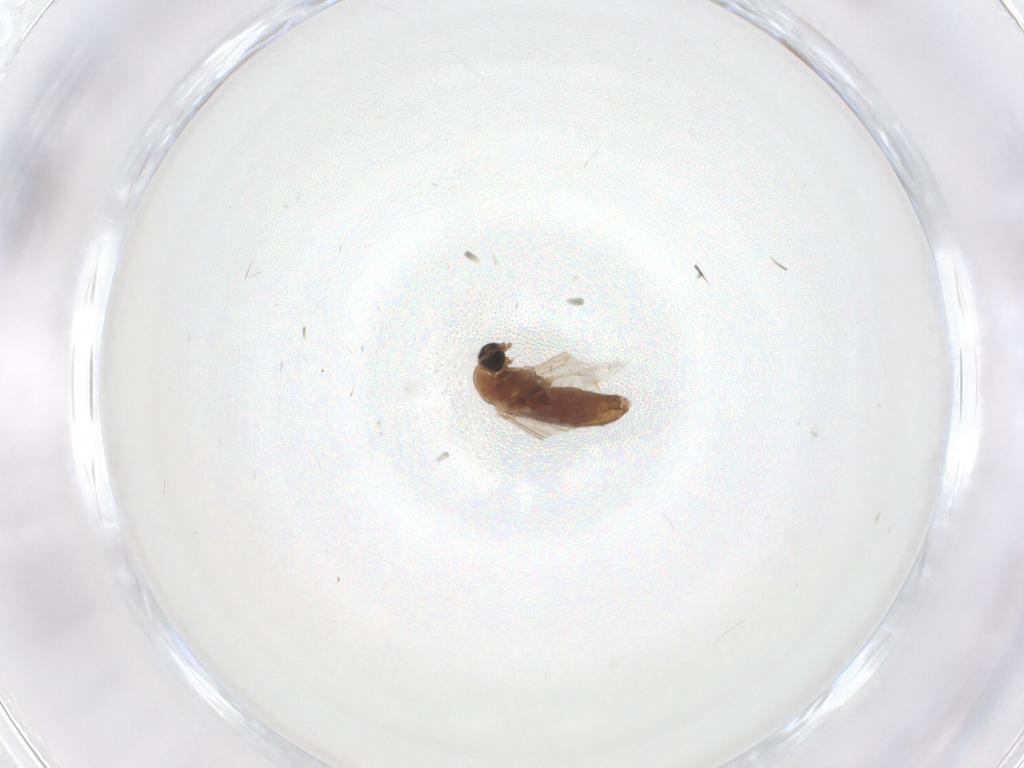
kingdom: Animalia
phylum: Arthropoda
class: Insecta
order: Diptera
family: Chironomidae
